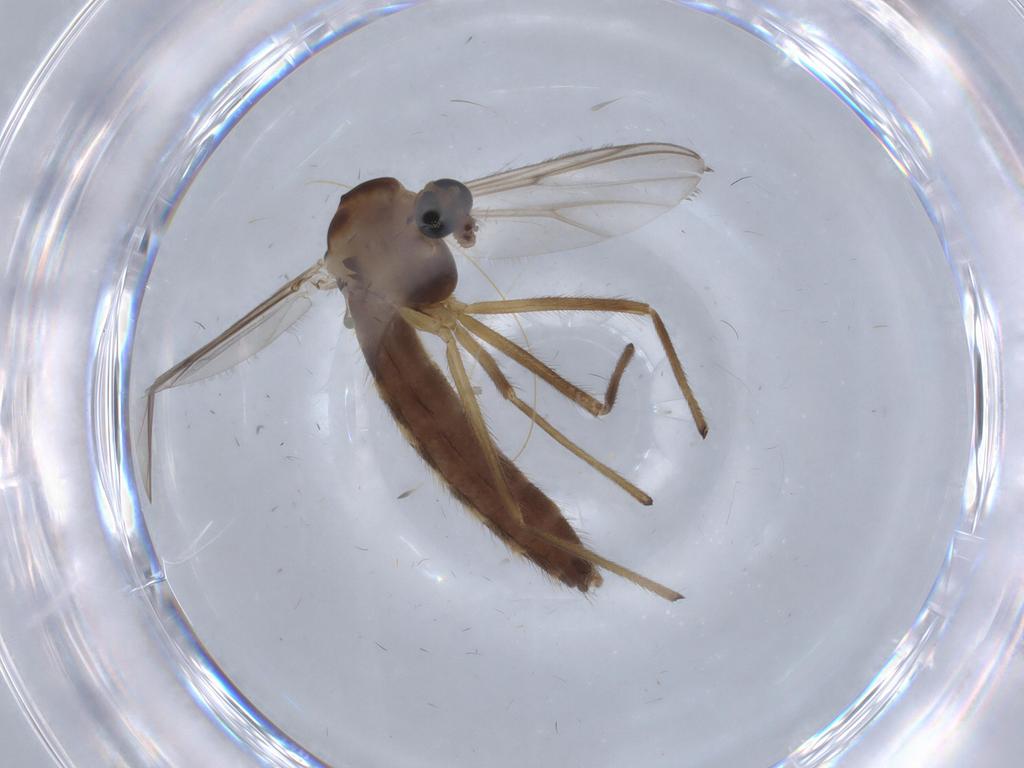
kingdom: Animalia
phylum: Arthropoda
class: Insecta
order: Diptera
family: Chironomidae
